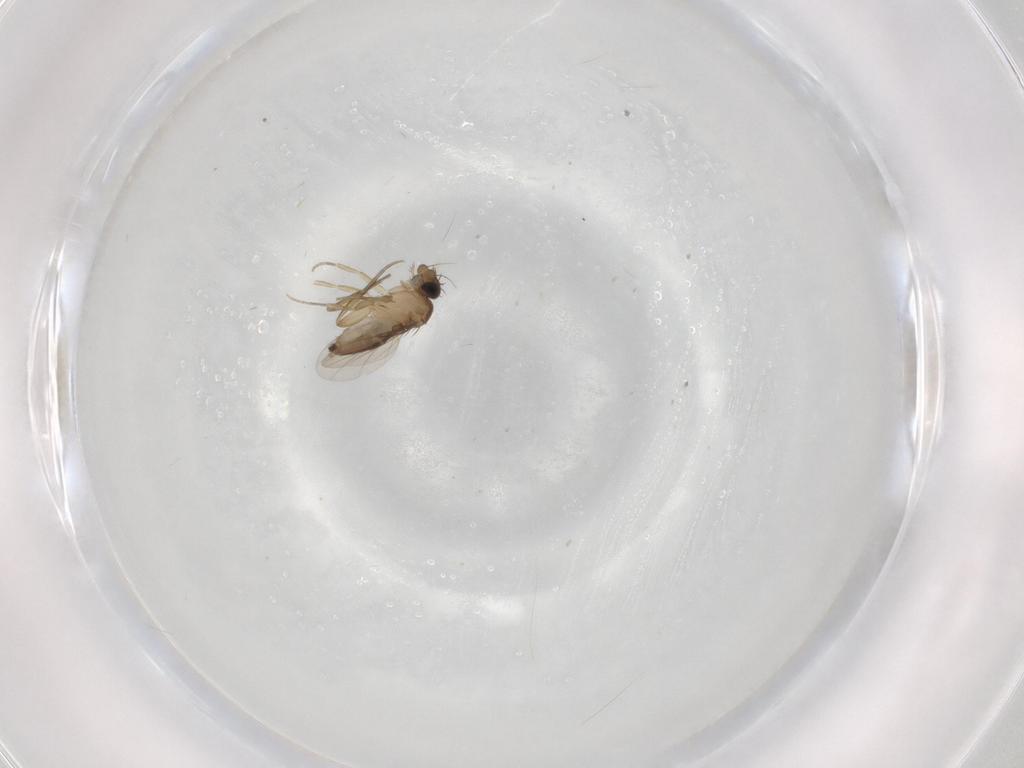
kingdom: Animalia
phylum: Arthropoda
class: Insecta
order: Diptera
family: Phoridae
